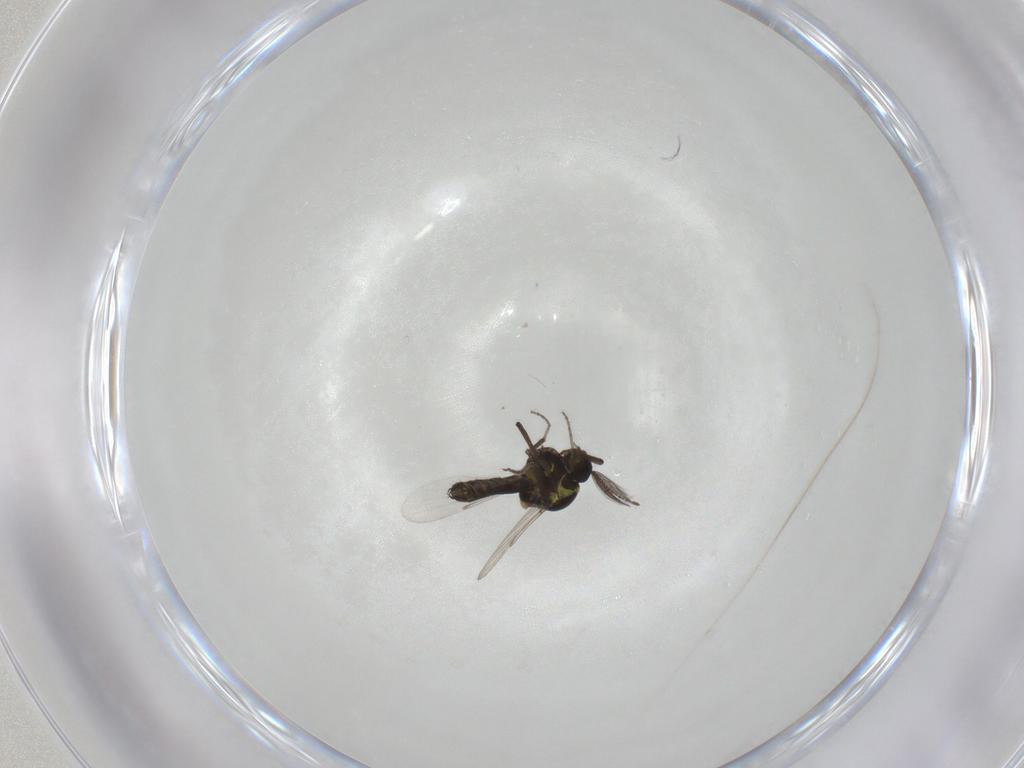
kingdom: Animalia
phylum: Arthropoda
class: Insecta
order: Diptera
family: Ceratopogonidae
